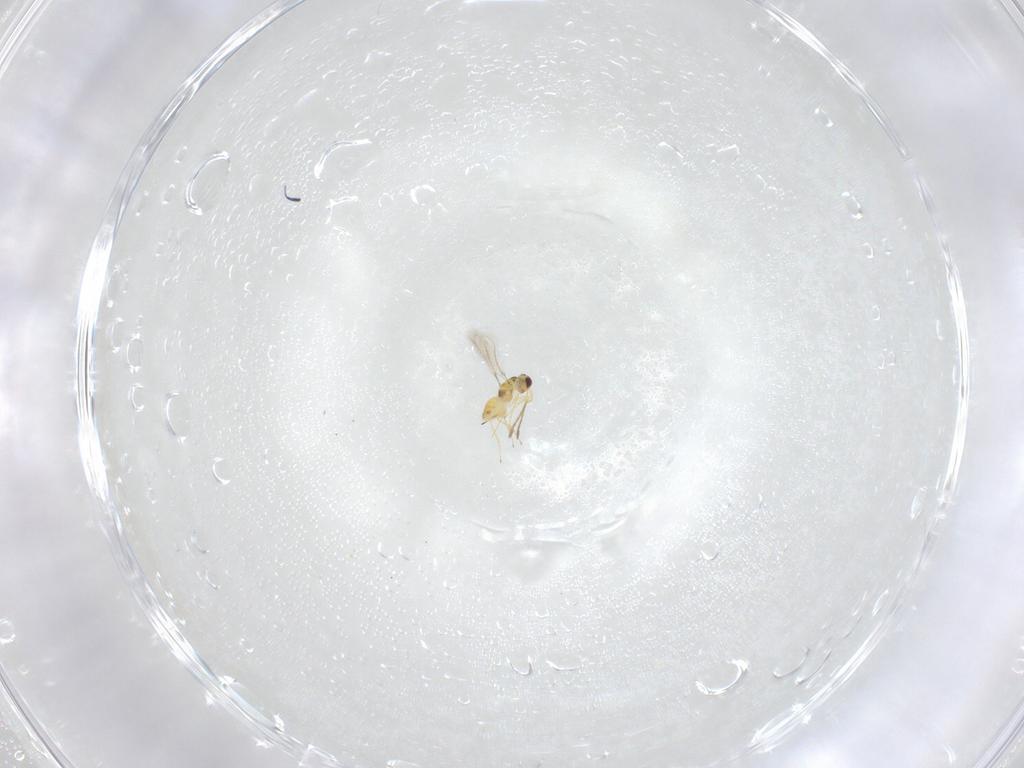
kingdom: Animalia
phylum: Arthropoda
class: Insecta
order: Hymenoptera
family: Mymaridae
